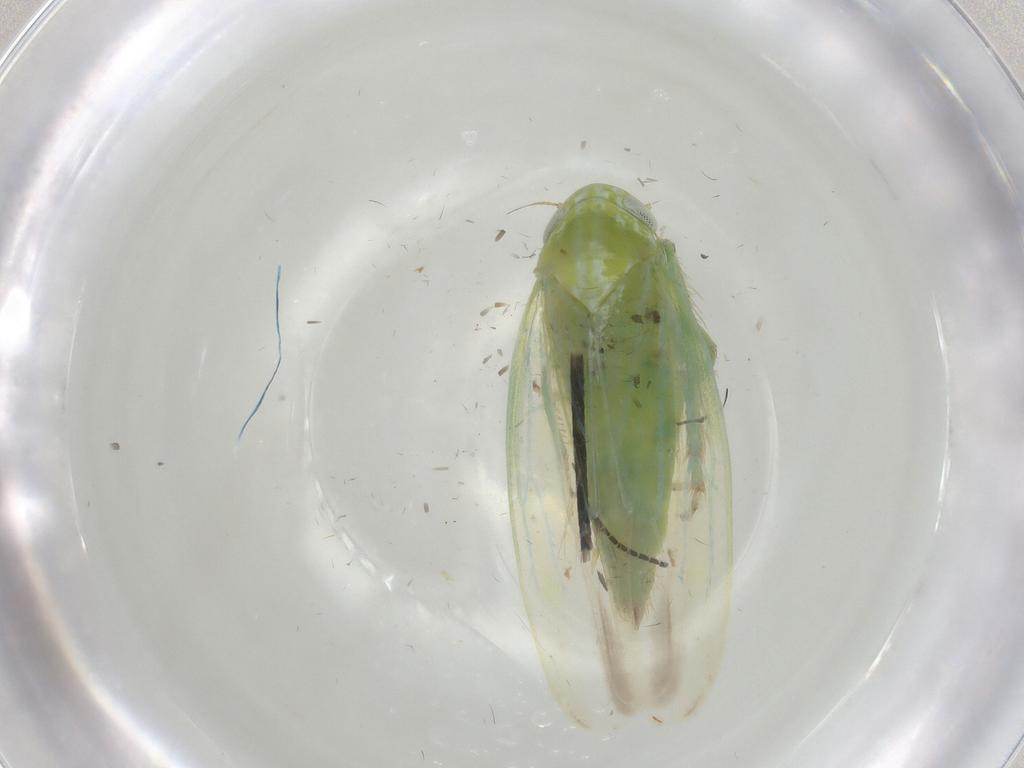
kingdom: Animalia
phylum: Arthropoda
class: Insecta
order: Hemiptera
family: Cicadellidae
